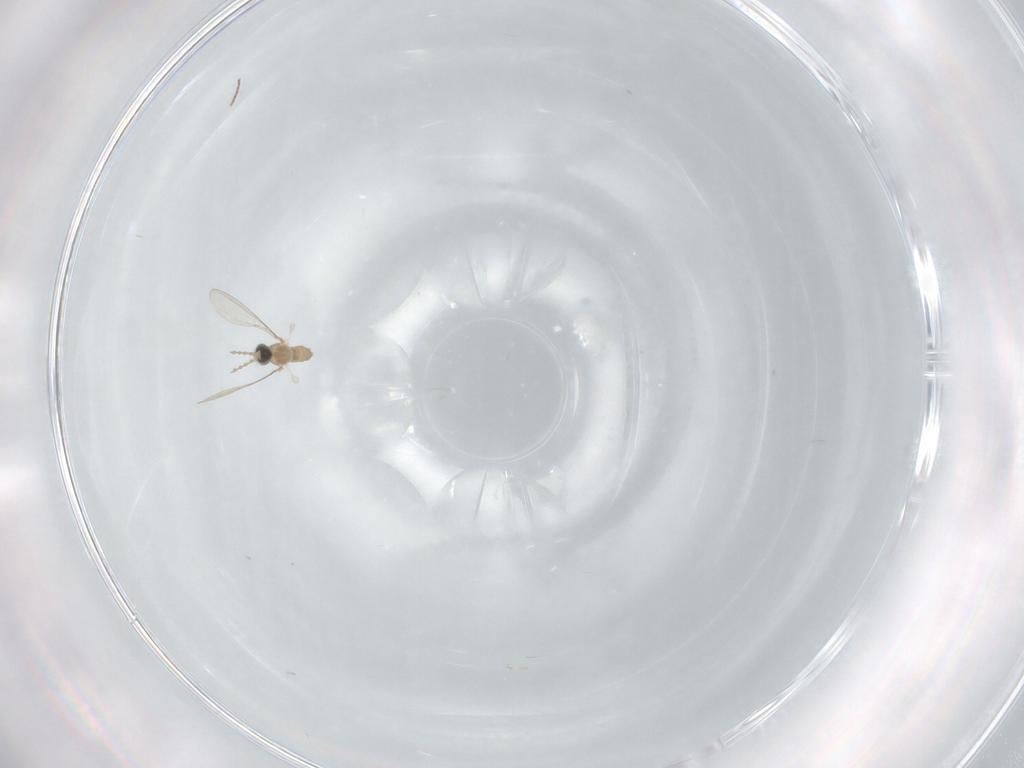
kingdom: Animalia
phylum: Arthropoda
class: Insecta
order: Diptera
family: Cecidomyiidae
